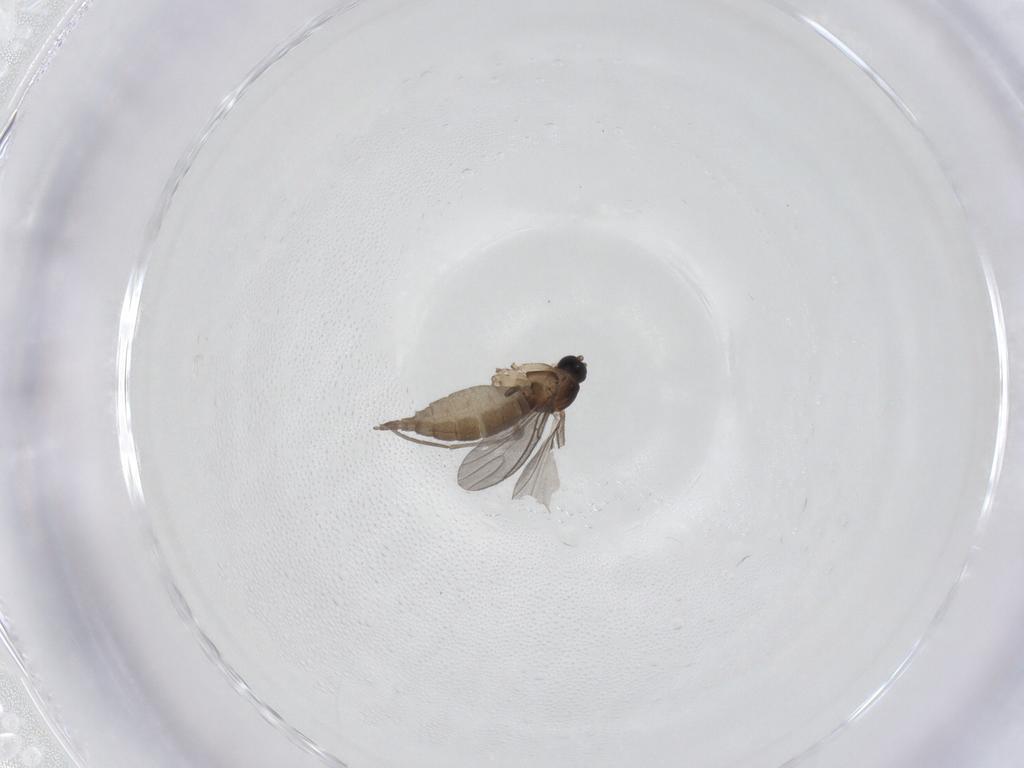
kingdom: Animalia
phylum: Arthropoda
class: Insecta
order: Diptera
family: Sciaridae
